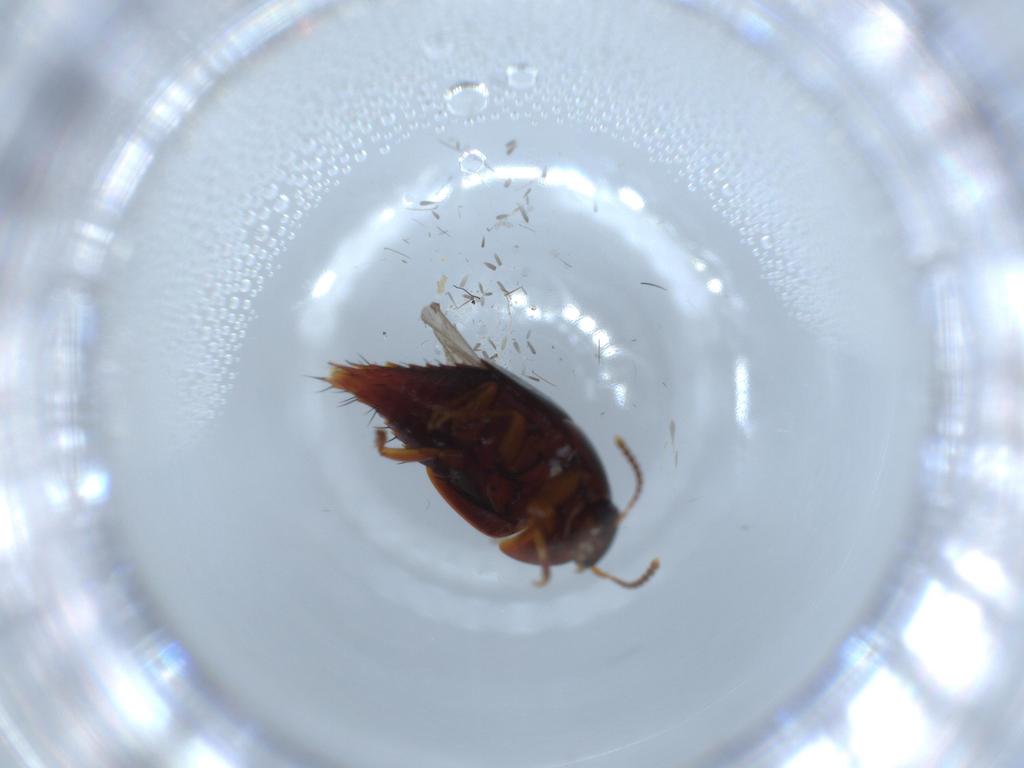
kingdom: Animalia
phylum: Arthropoda
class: Insecta
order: Coleoptera
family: Staphylinidae
